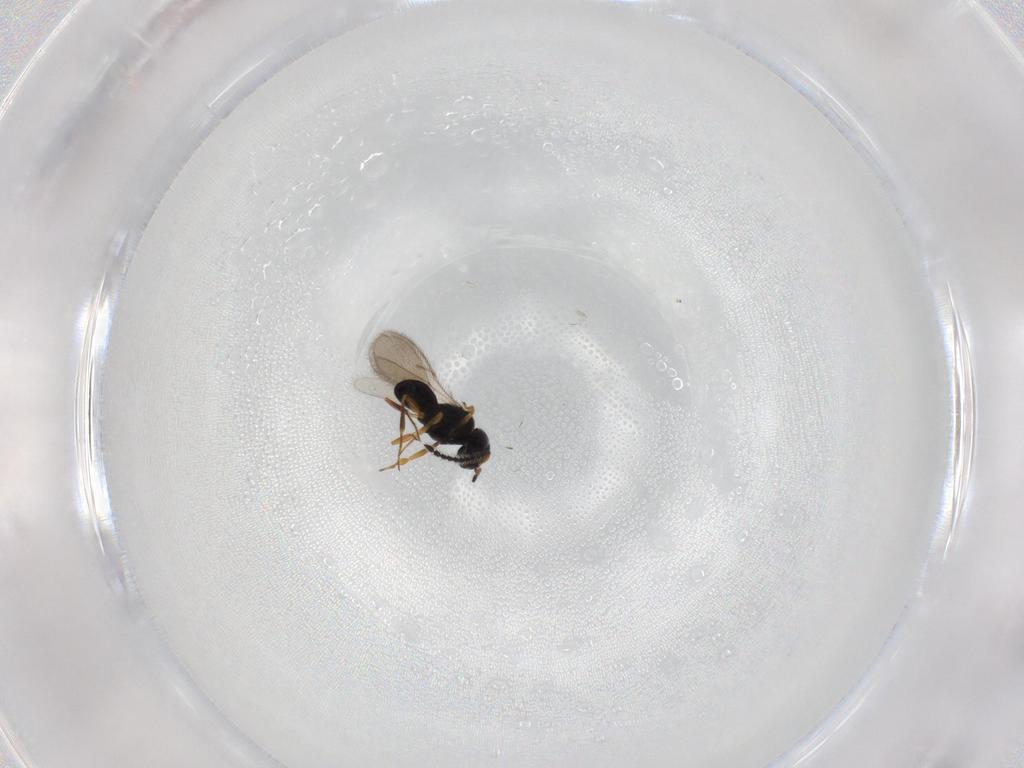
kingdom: Animalia
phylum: Arthropoda
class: Insecta
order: Hymenoptera
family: Scelionidae
